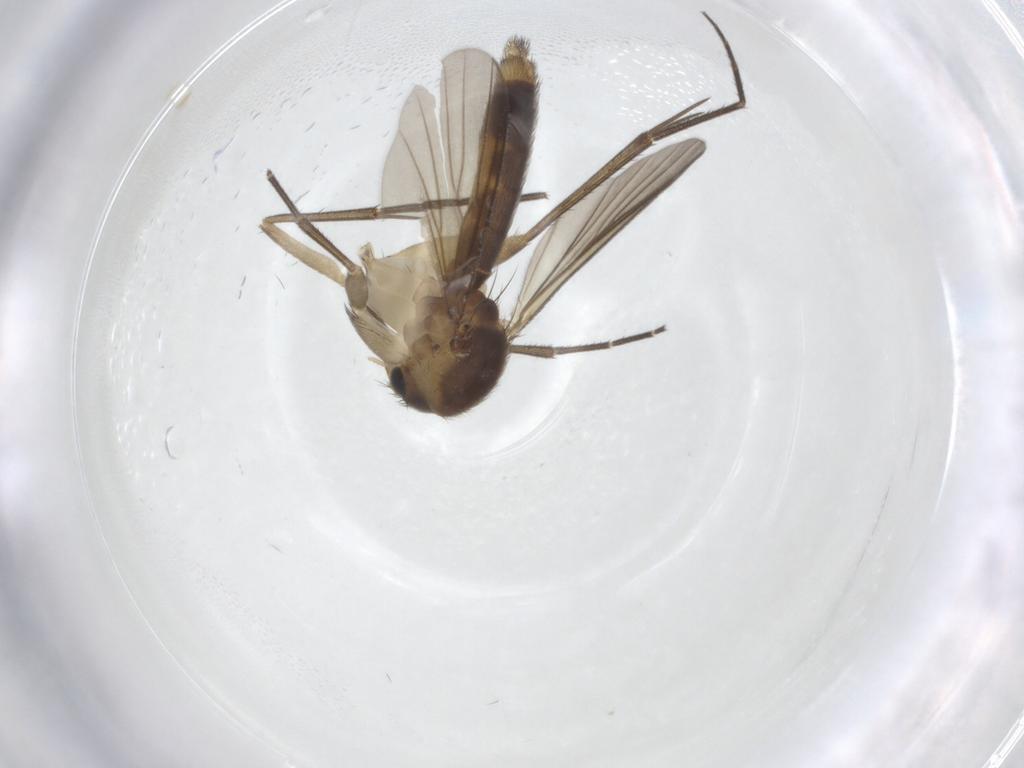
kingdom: Animalia
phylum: Arthropoda
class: Insecta
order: Diptera
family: Mycetophilidae
